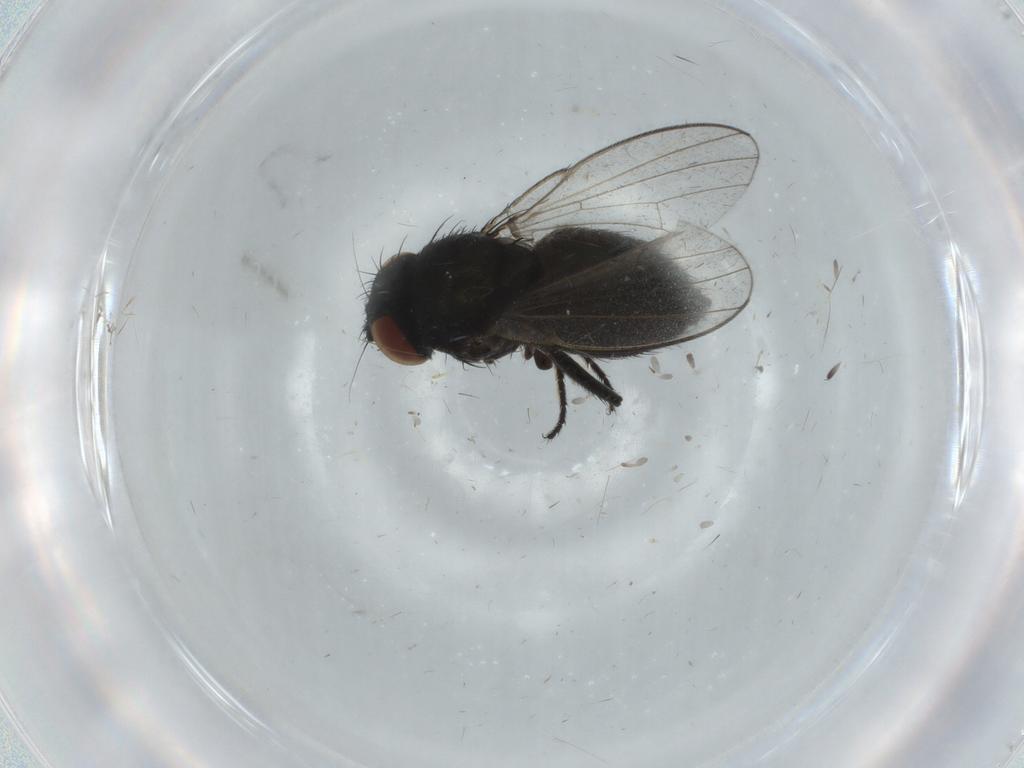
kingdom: Animalia
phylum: Arthropoda
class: Insecta
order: Diptera
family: Milichiidae
